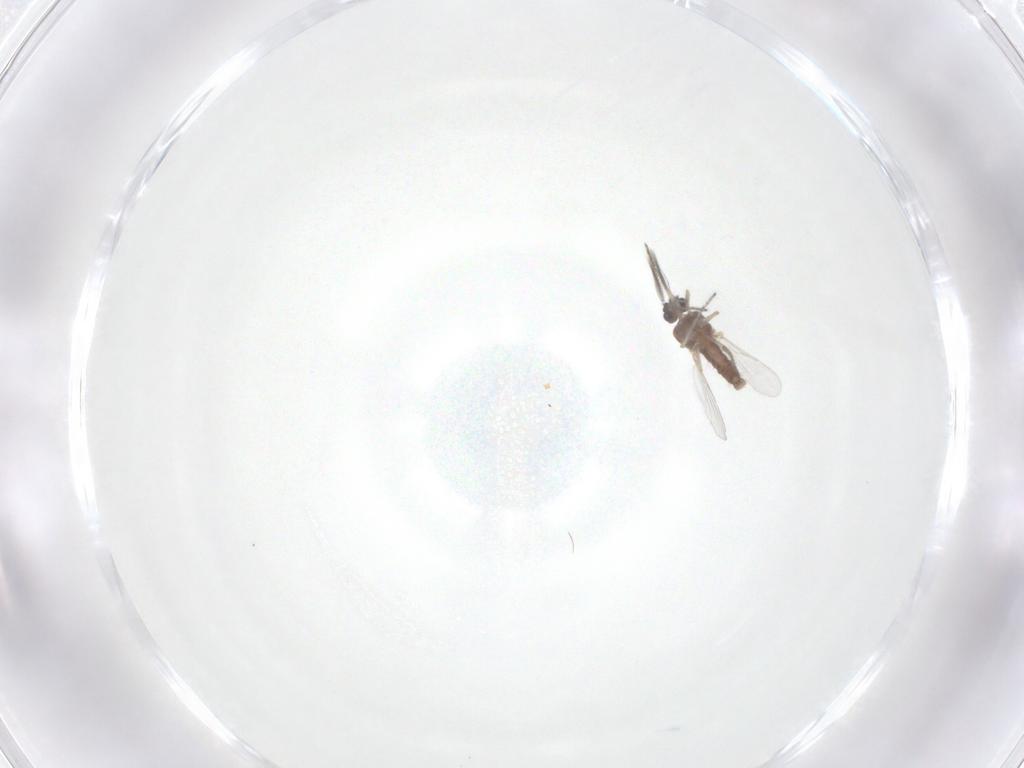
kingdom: Animalia
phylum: Arthropoda
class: Insecta
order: Diptera
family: Ceratopogonidae
